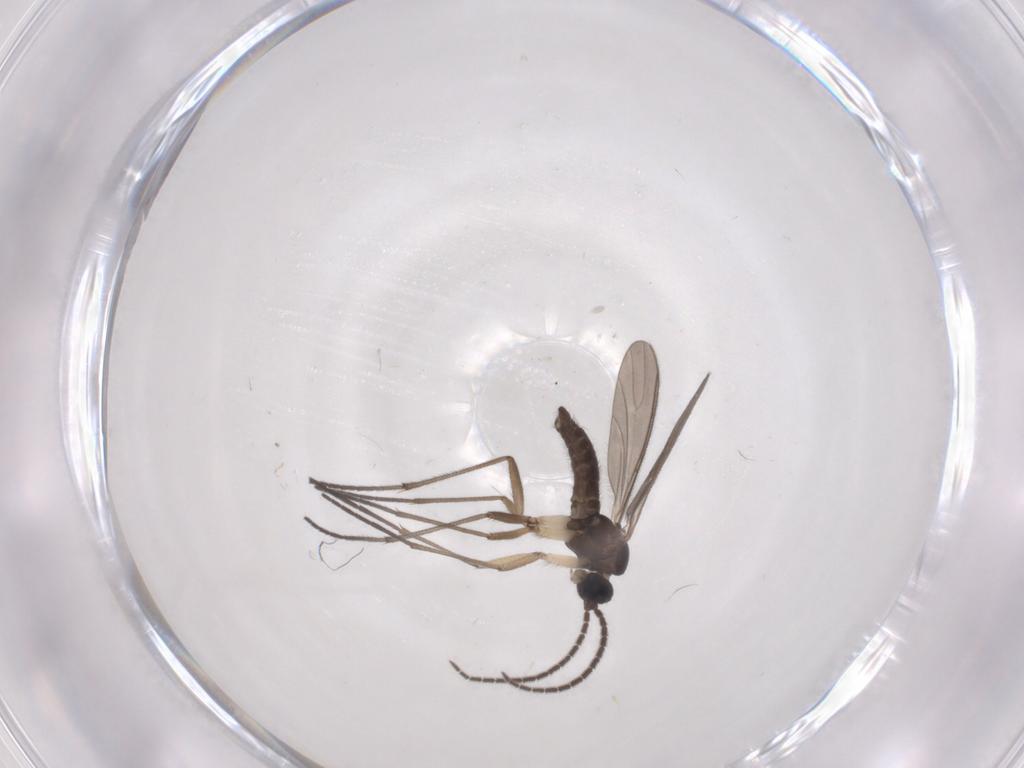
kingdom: Animalia
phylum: Arthropoda
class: Insecta
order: Diptera
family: Sciaridae
